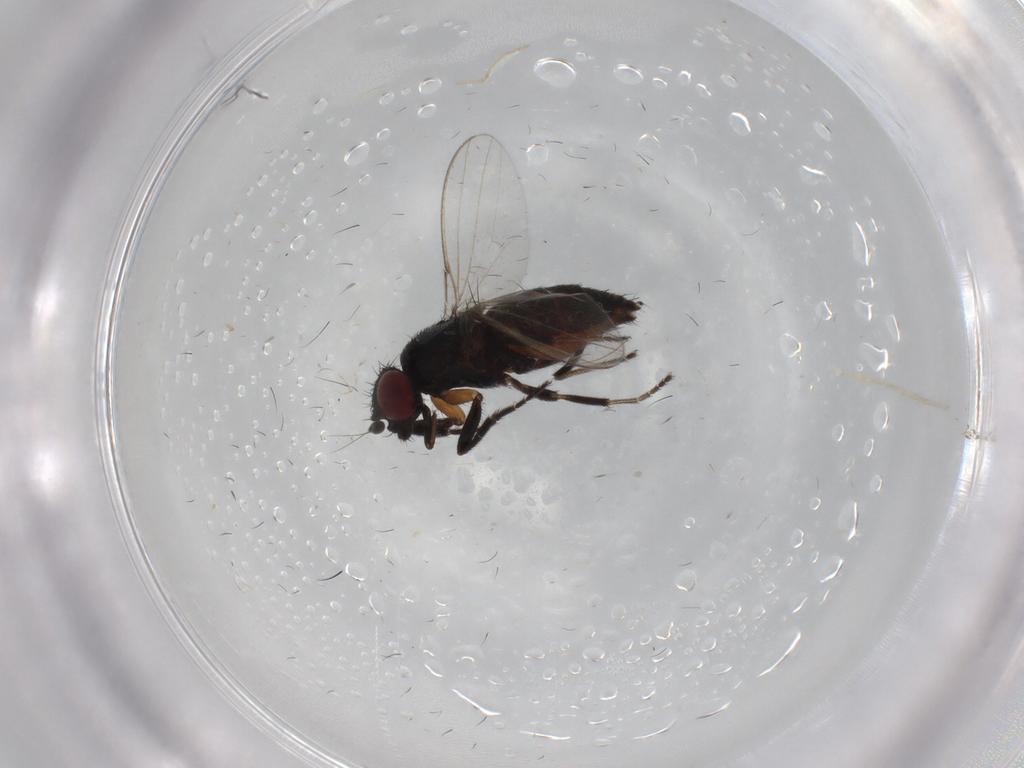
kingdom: Animalia
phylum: Arthropoda
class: Insecta
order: Diptera
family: Milichiidae
